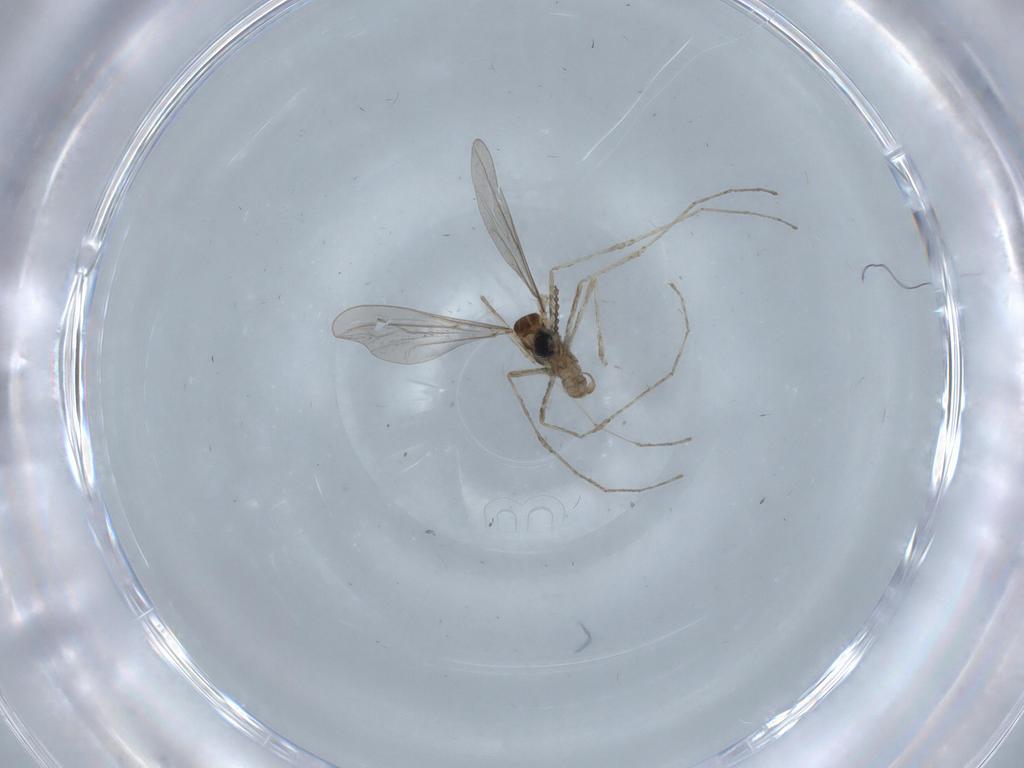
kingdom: Animalia
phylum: Arthropoda
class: Insecta
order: Diptera
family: Cecidomyiidae
